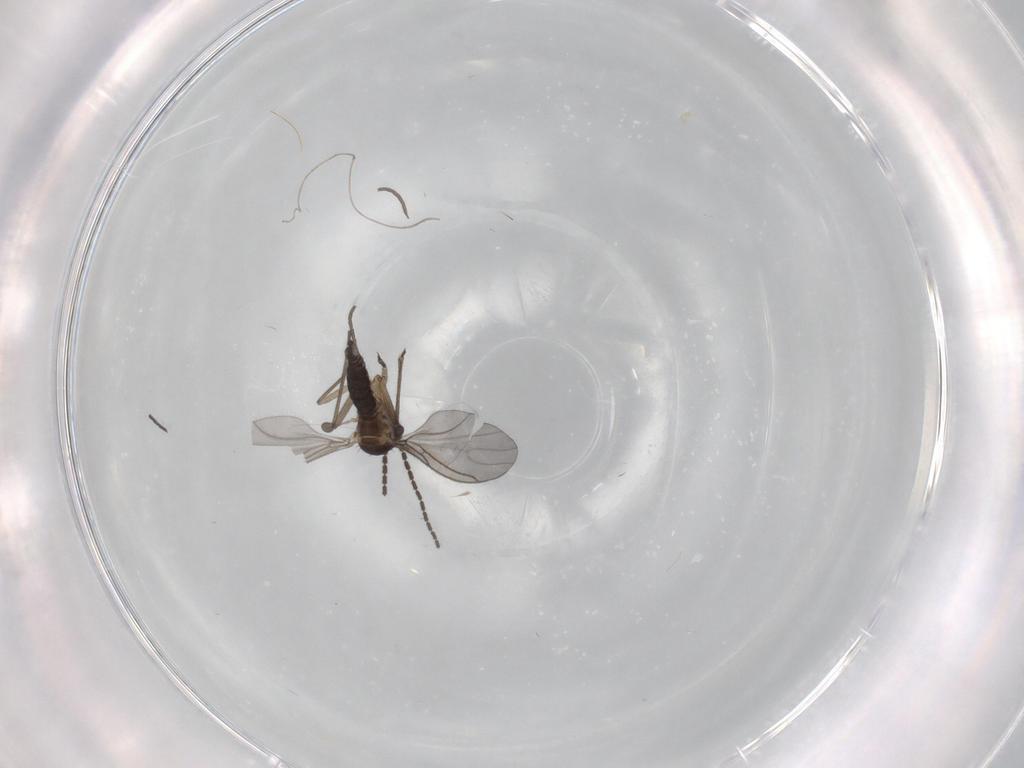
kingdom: Animalia
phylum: Arthropoda
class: Insecta
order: Diptera
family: Sciaridae
